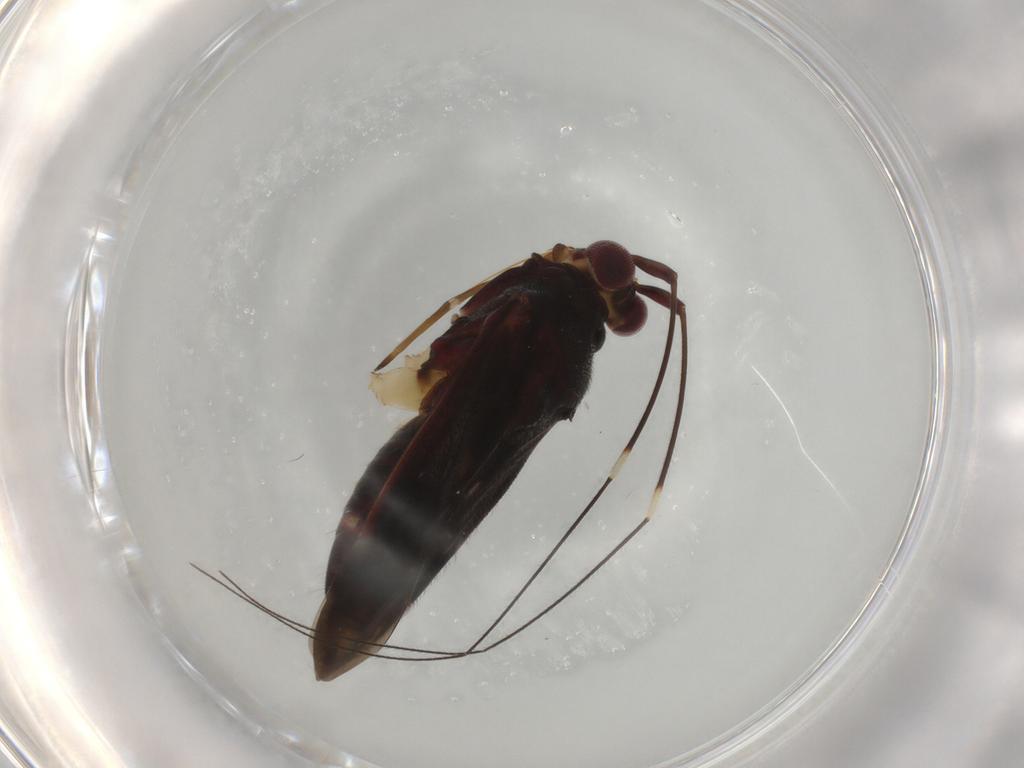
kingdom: Animalia
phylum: Arthropoda
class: Insecta
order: Hemiptera
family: Miridae
